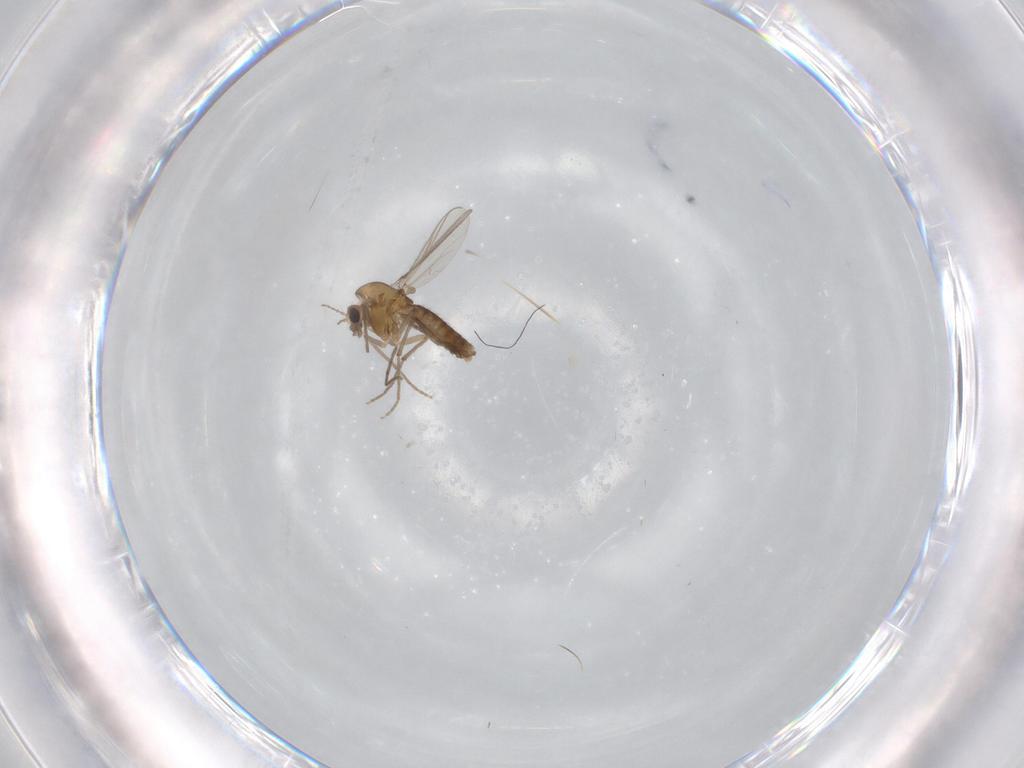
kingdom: Animalia
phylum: Arthropoda
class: Insecta
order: Diptera
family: Chironomidae
